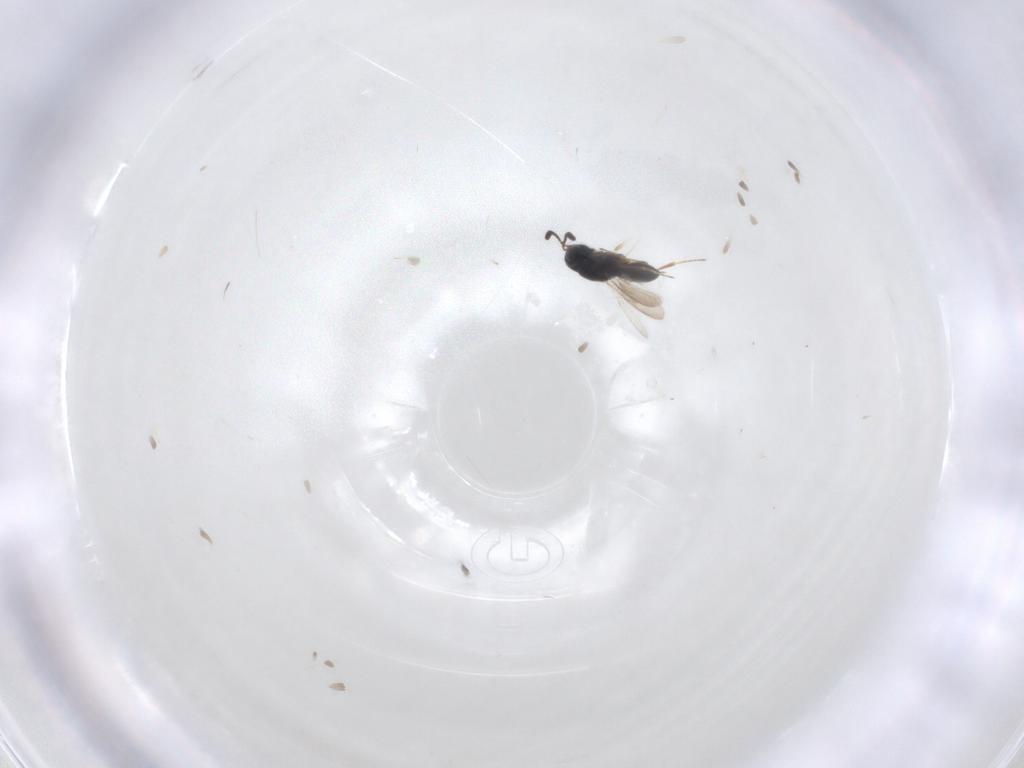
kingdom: Animalia
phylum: Arthropoda
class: Insecta
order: Hymenoptera
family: Scelionidae
